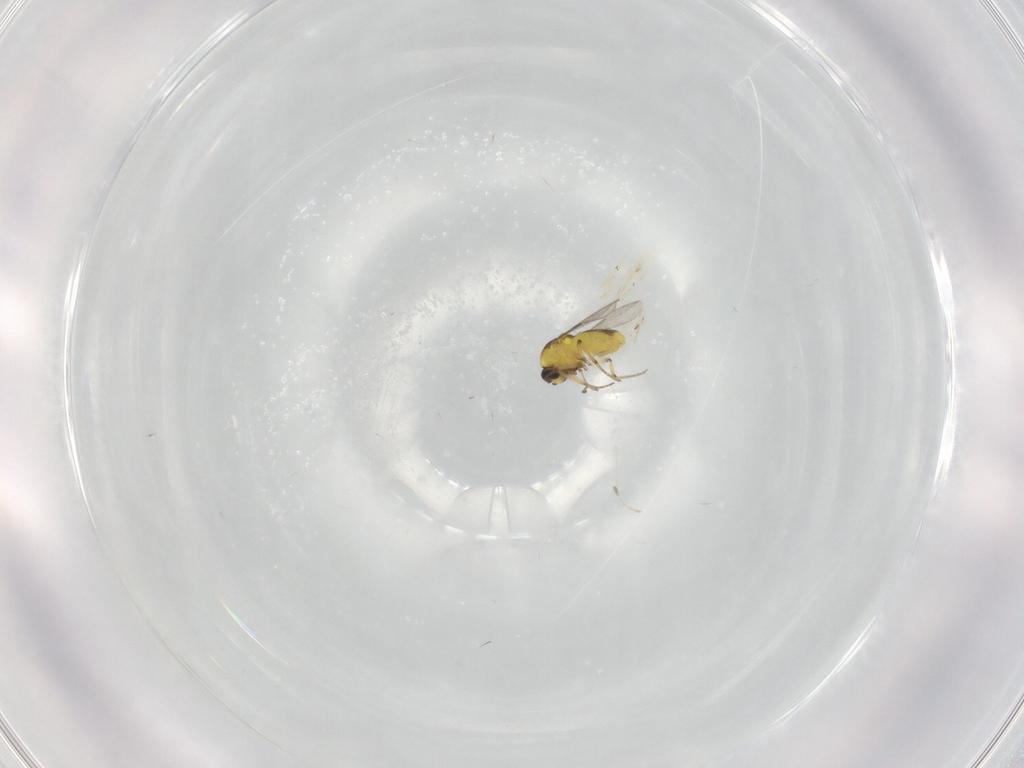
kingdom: Animalia
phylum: Arthropoda
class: Insecta
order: Diptera
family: Ceratopogonidae
